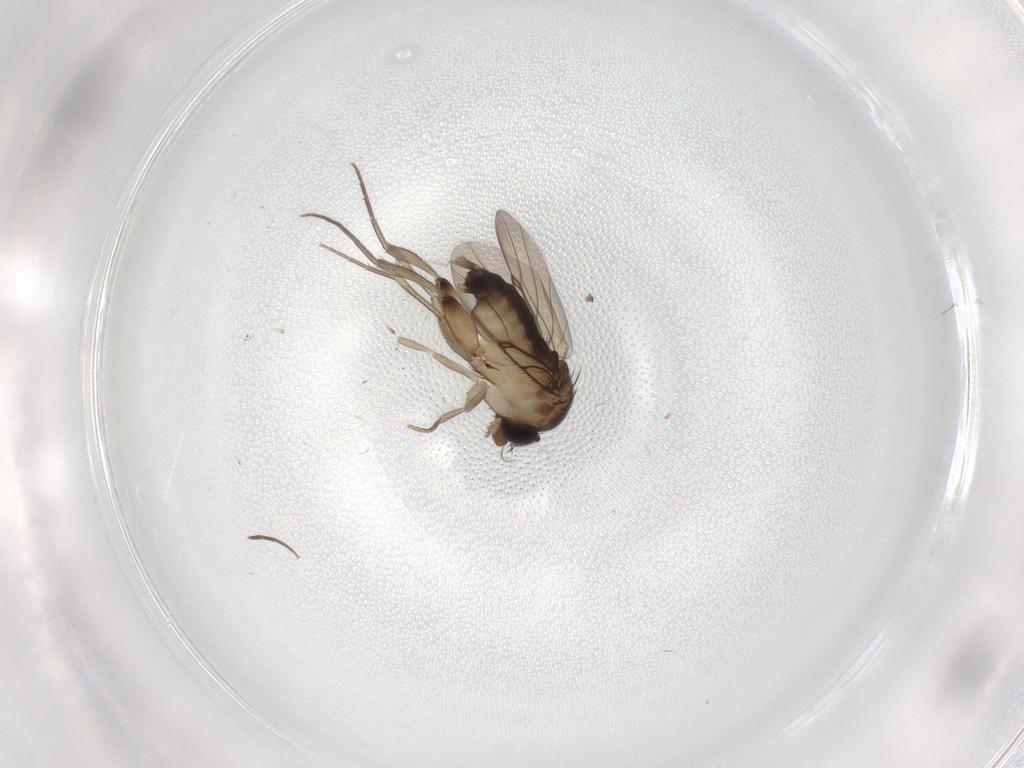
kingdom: Animalia
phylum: Arthropoda
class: Insecta
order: Diptera
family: Phoridae
